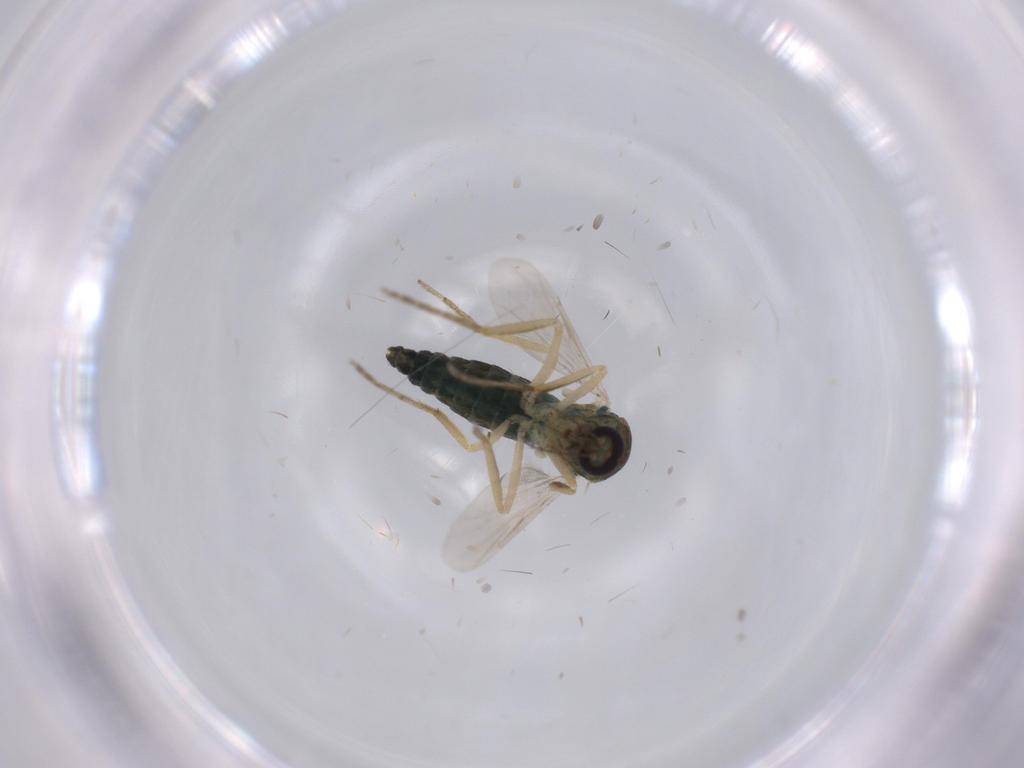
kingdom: Animalia
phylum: Arthropoda
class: Insecta
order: Diptera
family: Ceratopogonidae
